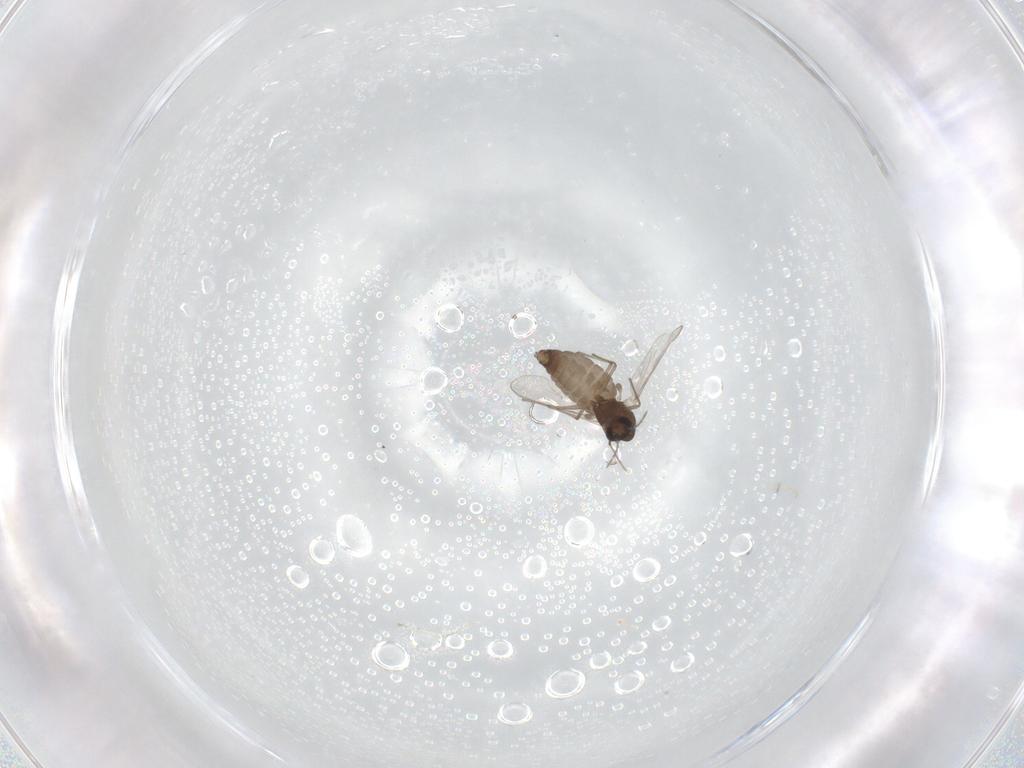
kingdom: Animalia
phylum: Arthropoda
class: Insecta
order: Diptera
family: Chironomidae
